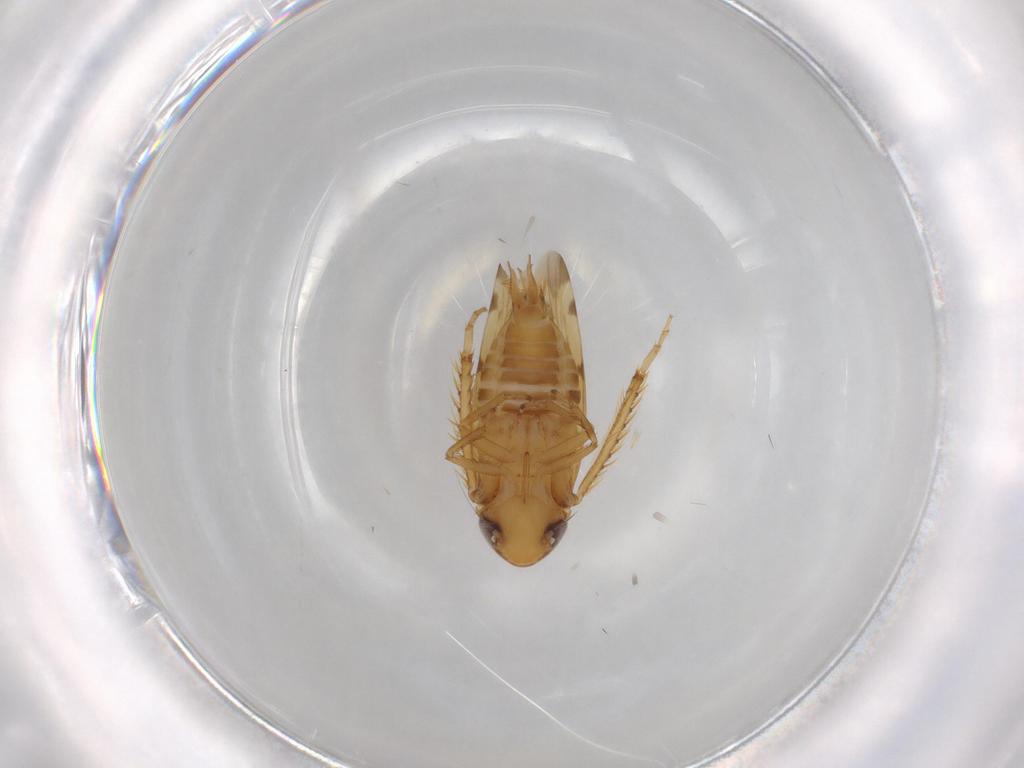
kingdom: Animalia
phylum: Arthropoda
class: Insecta
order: Hemiptera
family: Cicadellidae
